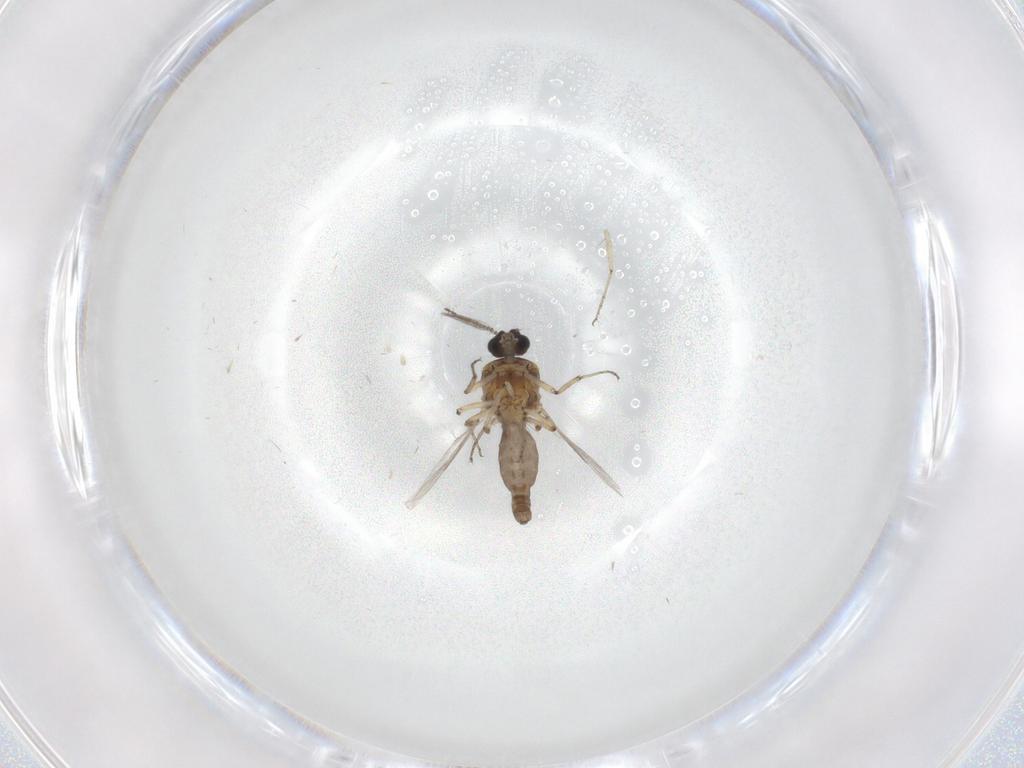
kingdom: Animalia
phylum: Arthropoda
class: Insecta
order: Diptera
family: Ceratopogonidae
